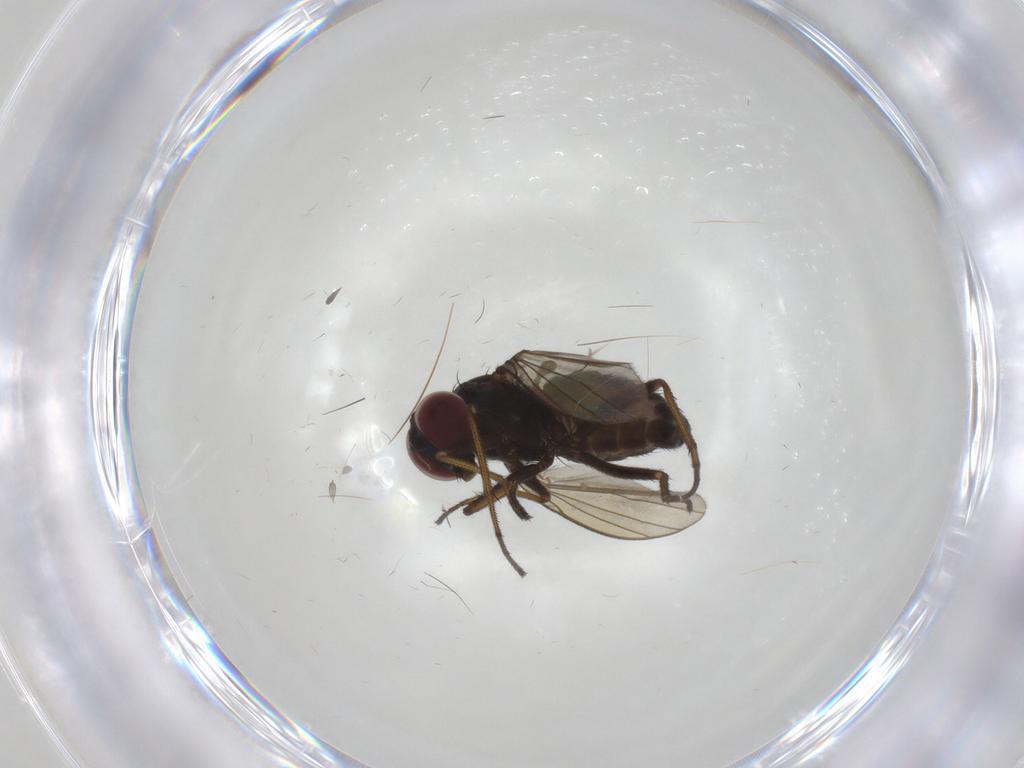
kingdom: Animalia
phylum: Arthropoda
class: Insecta
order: Diptera
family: Dolichopodidae
